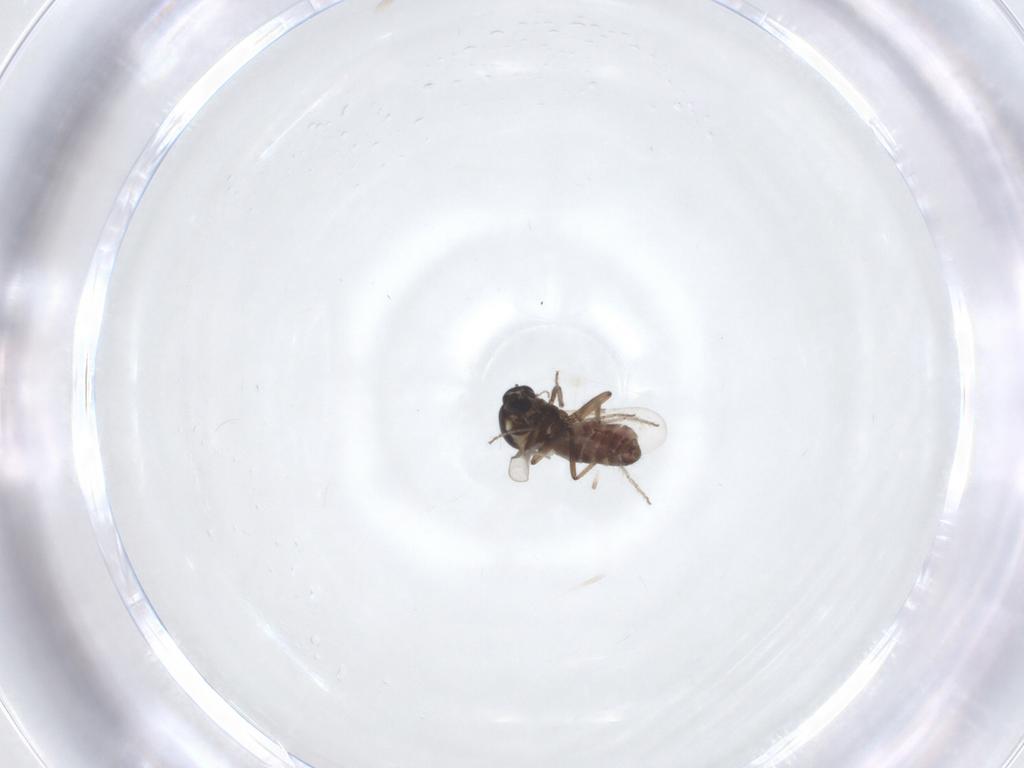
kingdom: Animalia
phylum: Arthropoda
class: Insecta
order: Diptera
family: Ceratopogonidae
